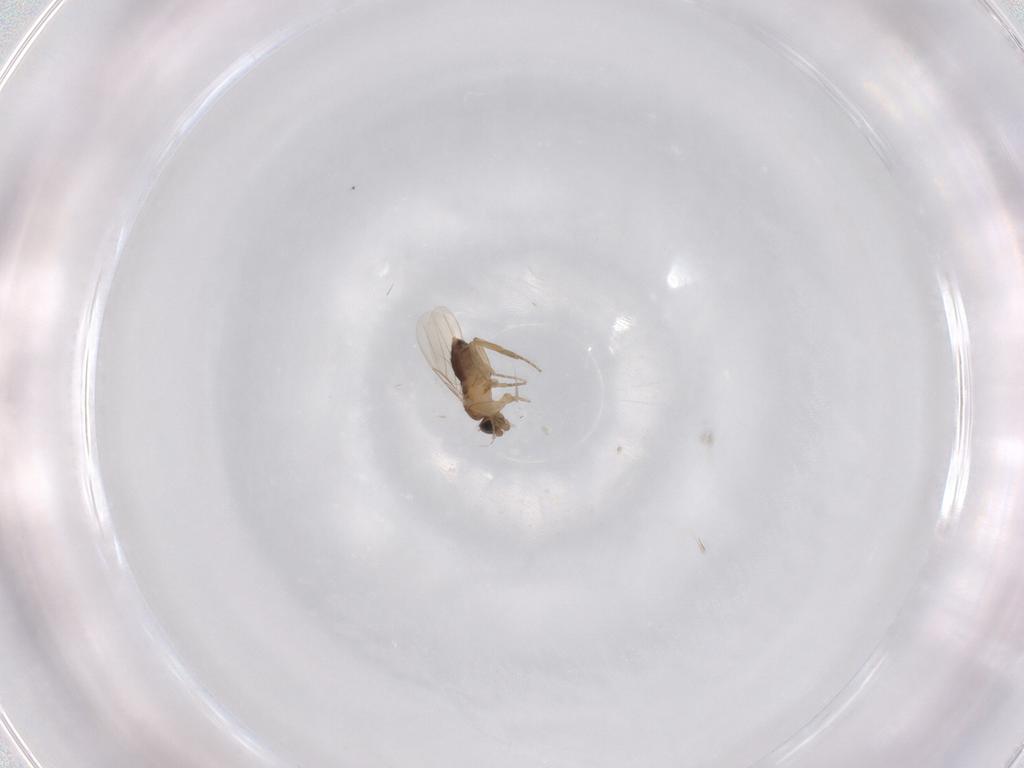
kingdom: Animalia
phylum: Arthropoda
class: Insecta
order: Diptera
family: Phoridae
